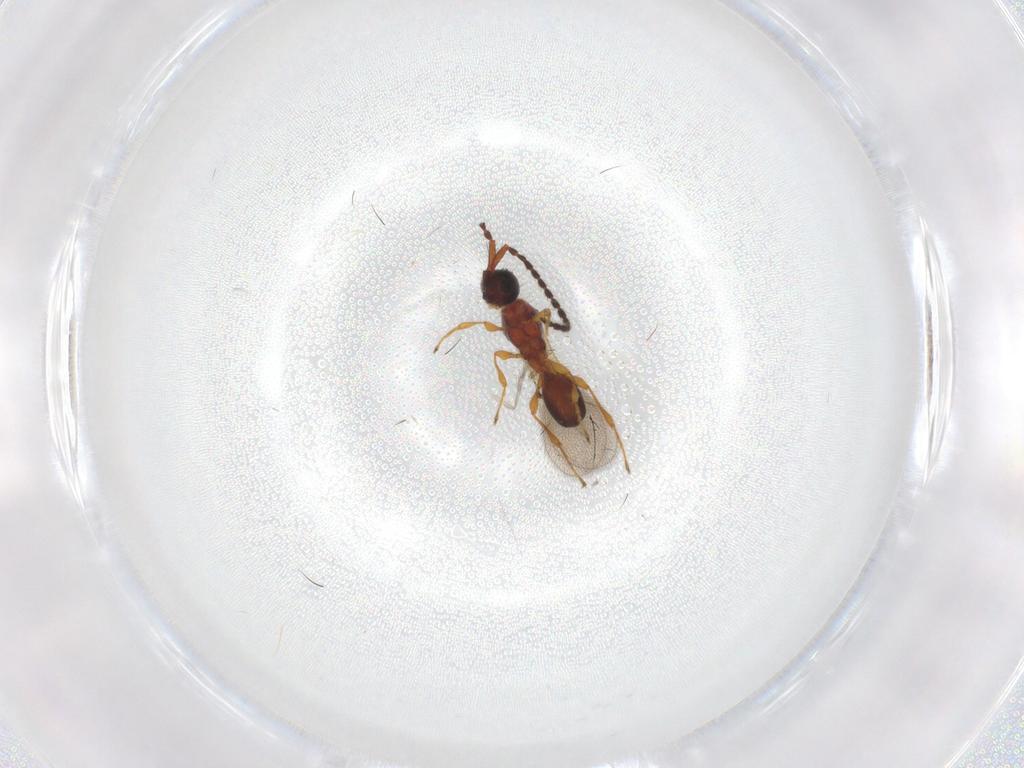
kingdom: Animalia
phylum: Arthropoda
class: Insecta
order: Hymenoptera
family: Diapriidae
